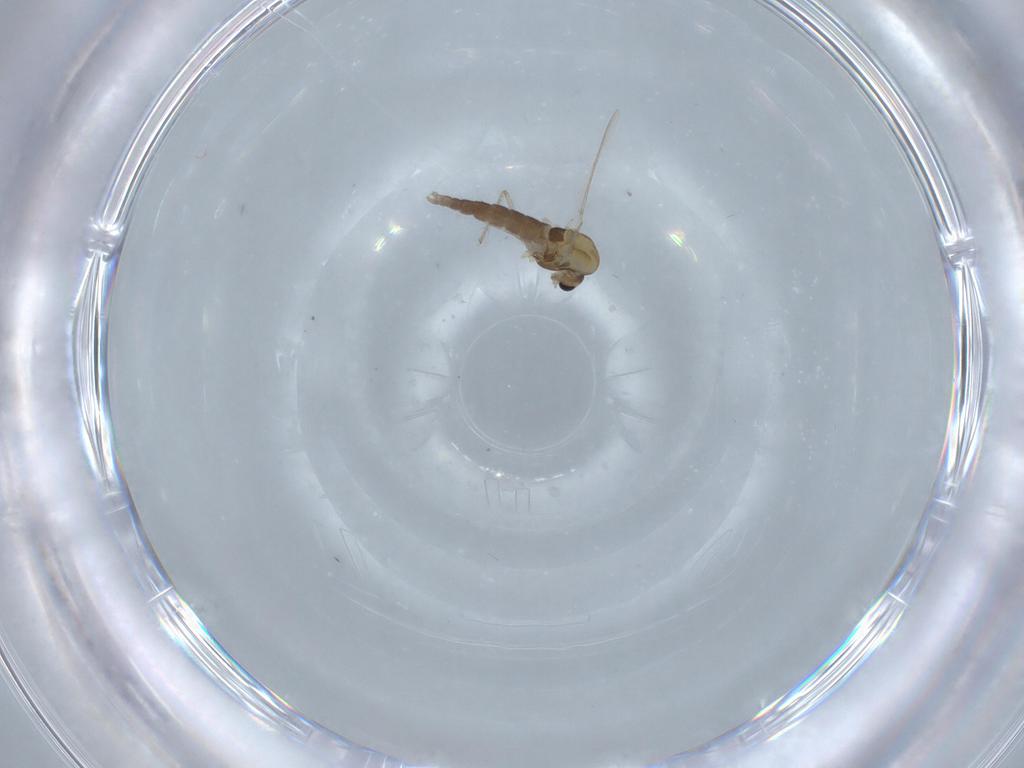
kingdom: Animalia
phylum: Arthropoda
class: Insecta
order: Diptera
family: Chironomidae
